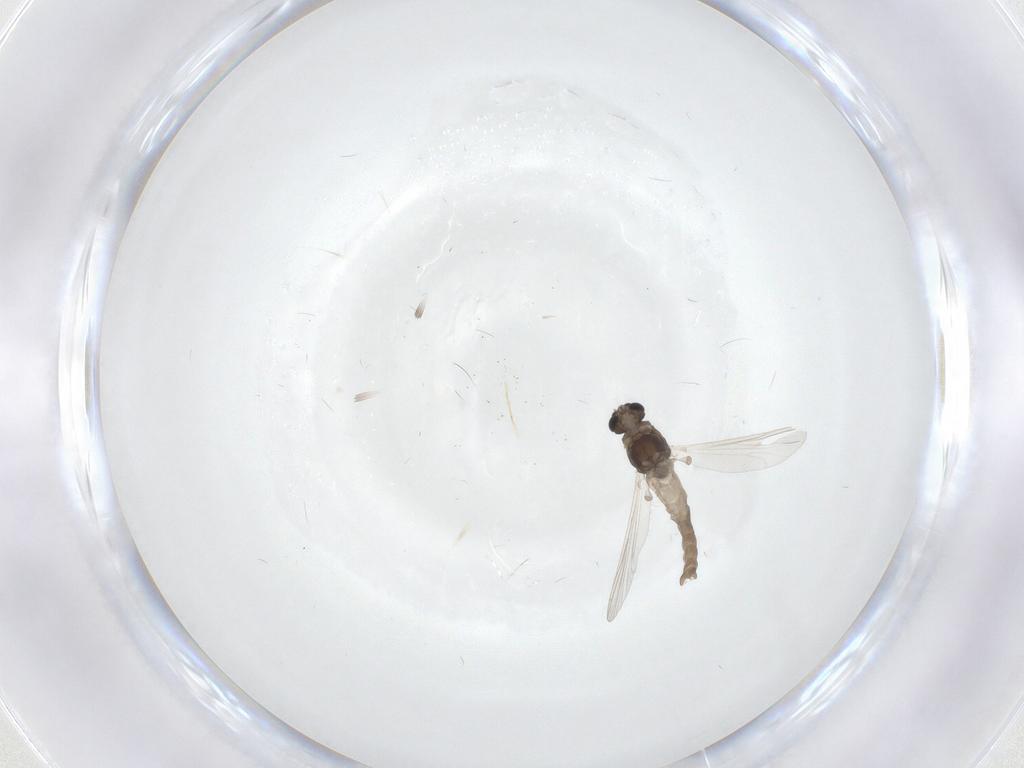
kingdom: Animalia
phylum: Arthropoda
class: Insecta
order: Diptera
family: Chironomidae
